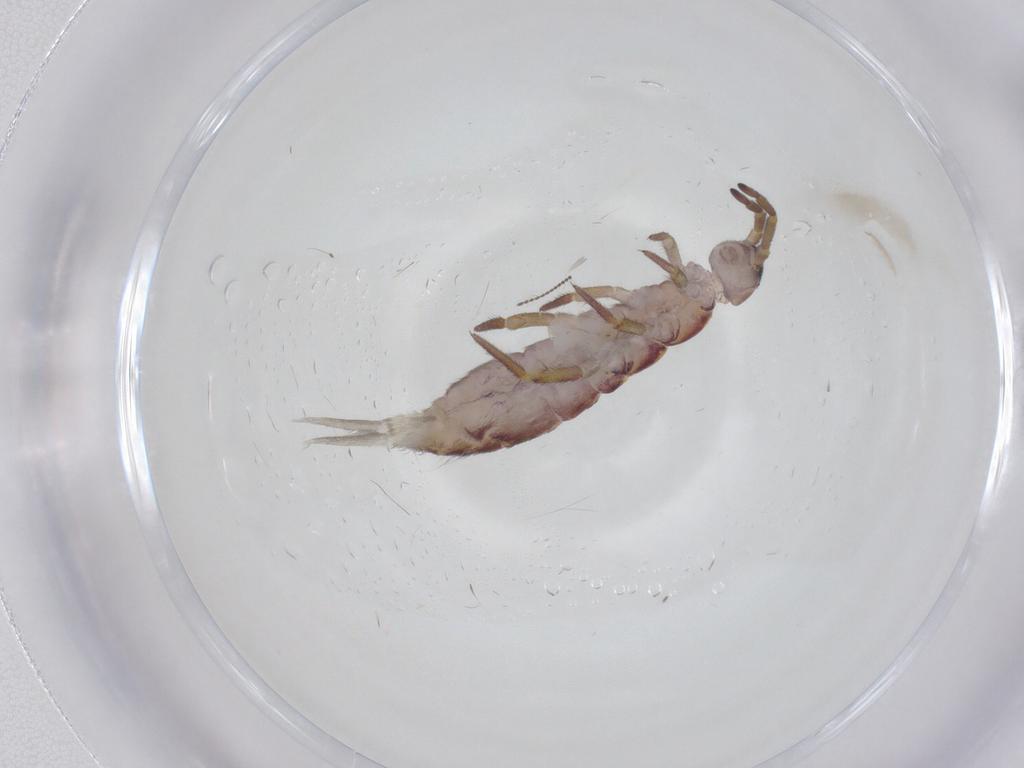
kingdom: Animalia
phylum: Arthropoda
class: Collembola
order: Entomobryomorpha
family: Isotomidae
